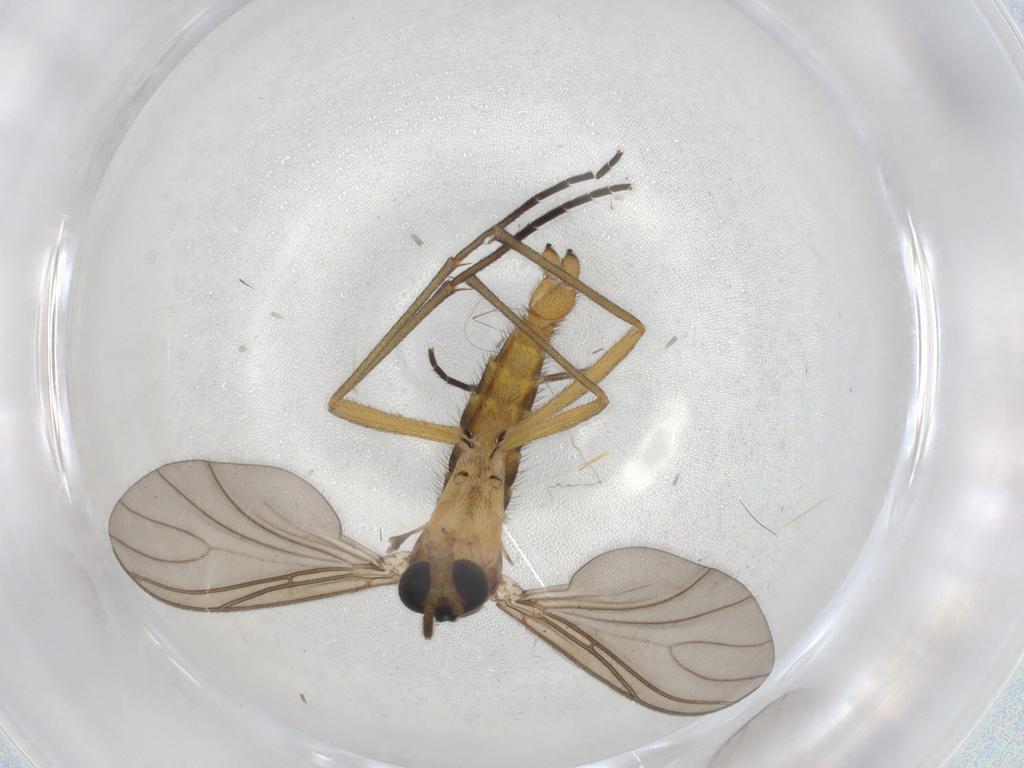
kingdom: Animalia
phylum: Arthropoda
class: Insecta
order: Diptera
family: Sciaridae
